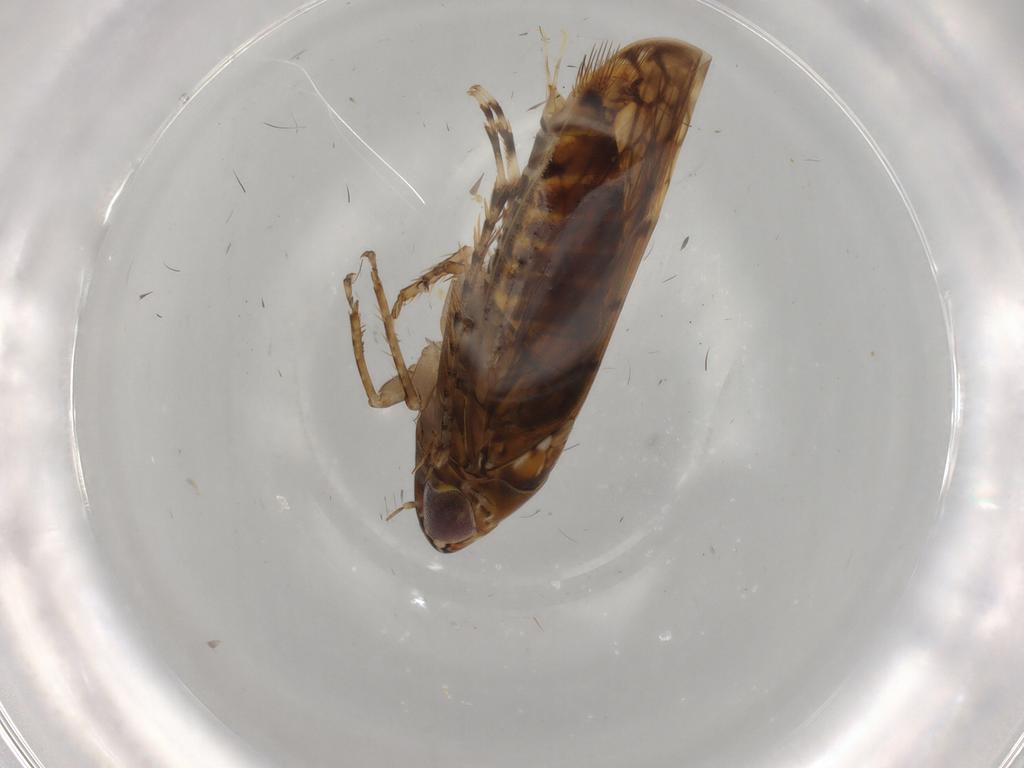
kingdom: Animalia
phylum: Arthropoda
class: Insecta
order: Hemiptera
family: Cicadellidae
